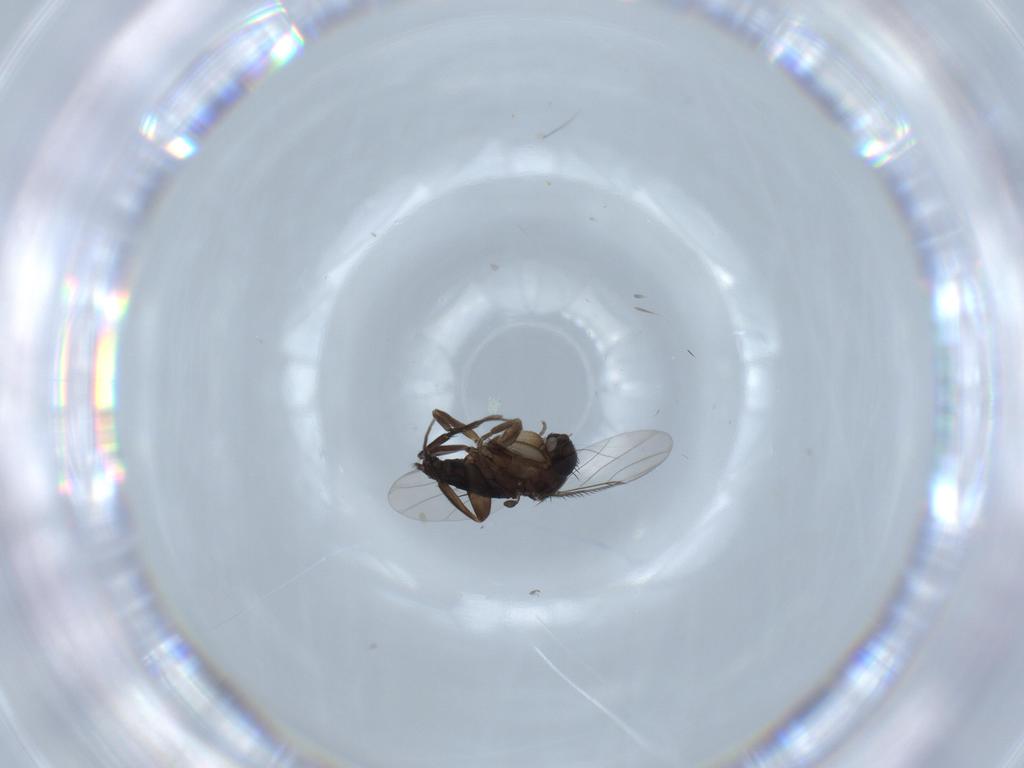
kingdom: Animalia
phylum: Arthropoda
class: Insecta
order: Diptera
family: Phoridae
